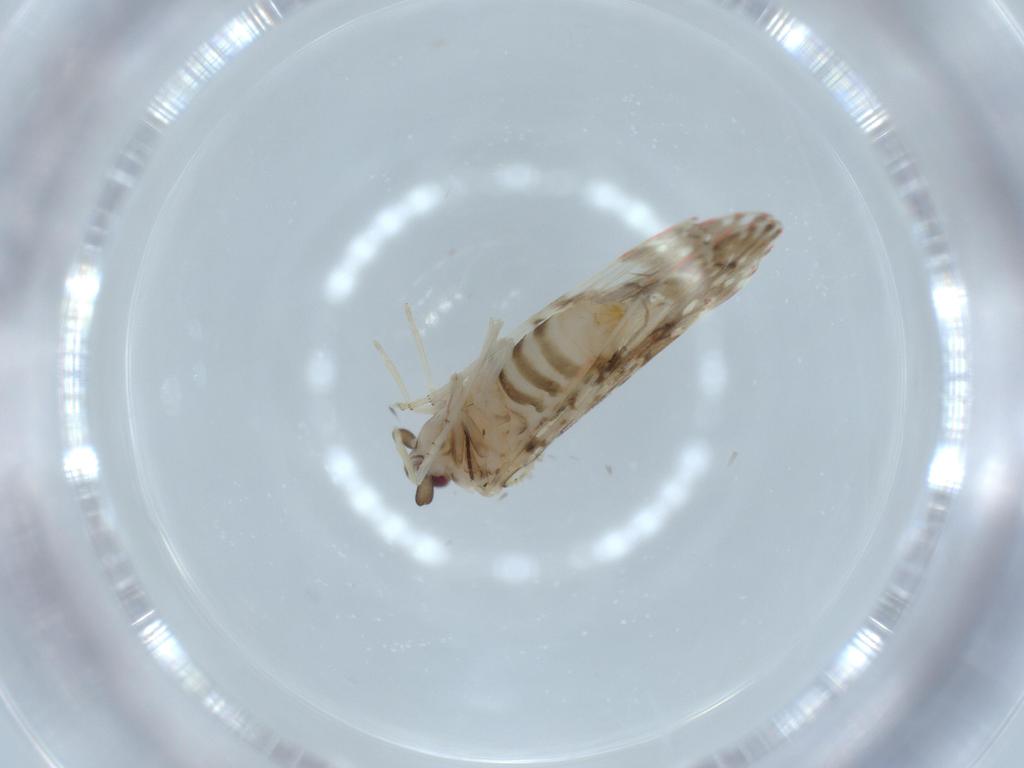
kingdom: Animalia
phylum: Arthropoda
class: Insecta
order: Hemiptera
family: Derbidae
